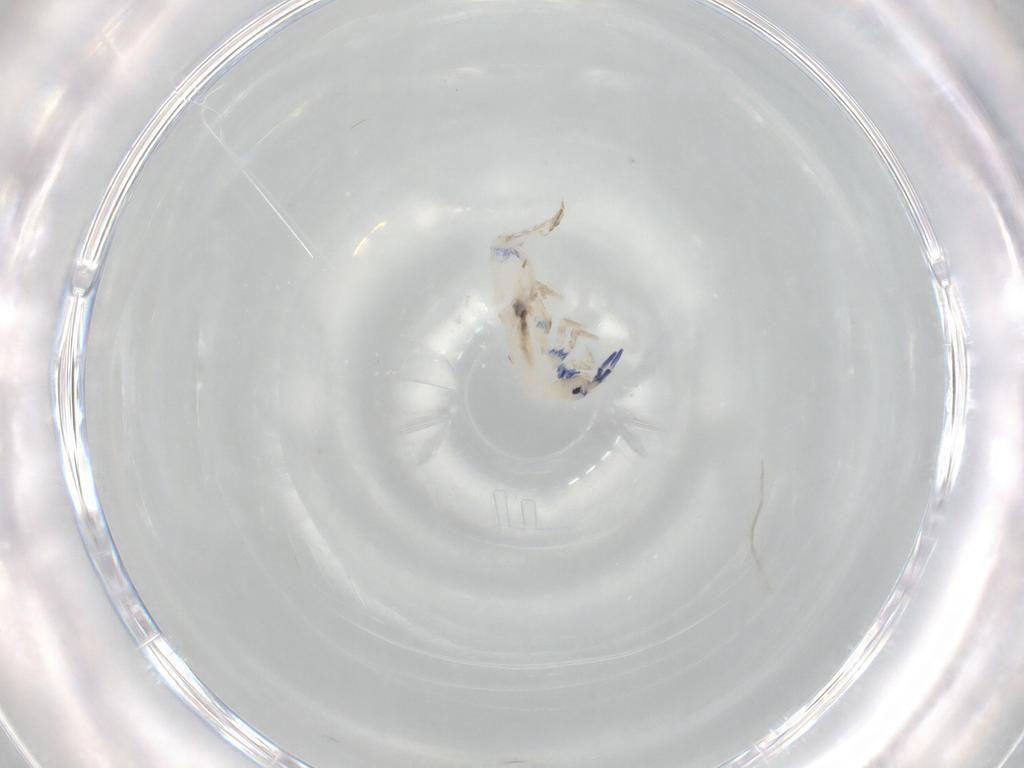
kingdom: Animalia
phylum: Arthropoda
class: Collembola
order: Entomobryomorpha
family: Entomobryidae
